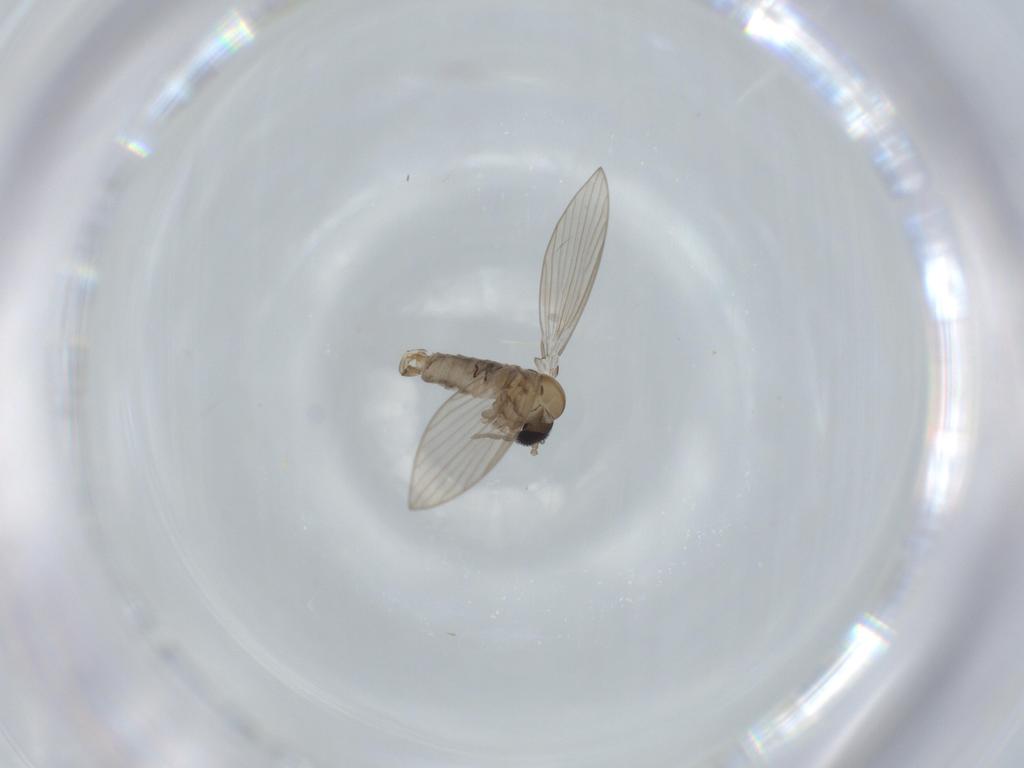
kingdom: Animalia
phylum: Arthropoda
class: Insecta
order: Diptera
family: Sciaridae
